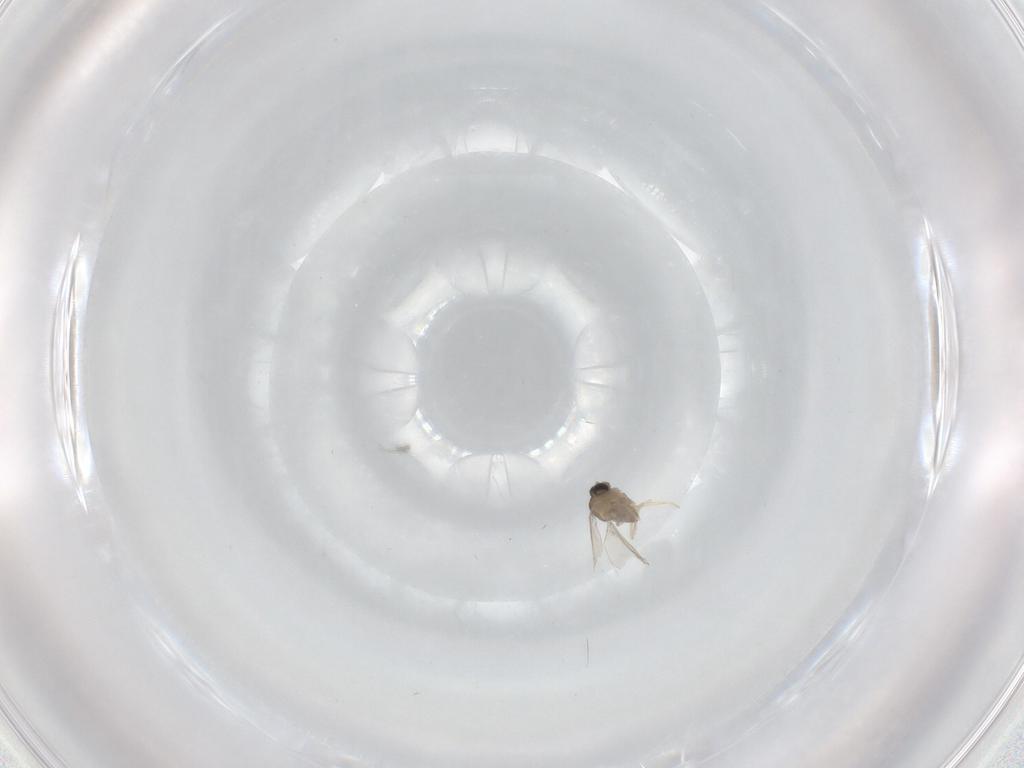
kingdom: Animalia
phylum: Arthropoda
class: Insecta
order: Diptera
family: Cecidomyiidae
